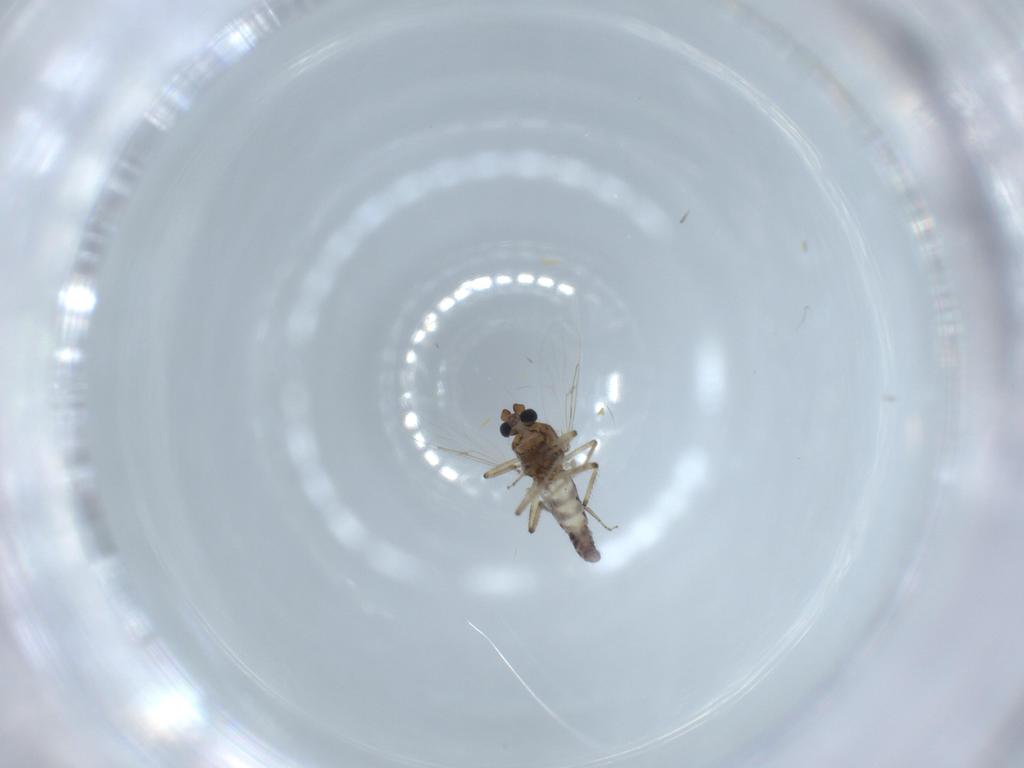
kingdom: Animalia
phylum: Arthropoda
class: Insecta
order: Diptera
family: Ceratopogonidae
